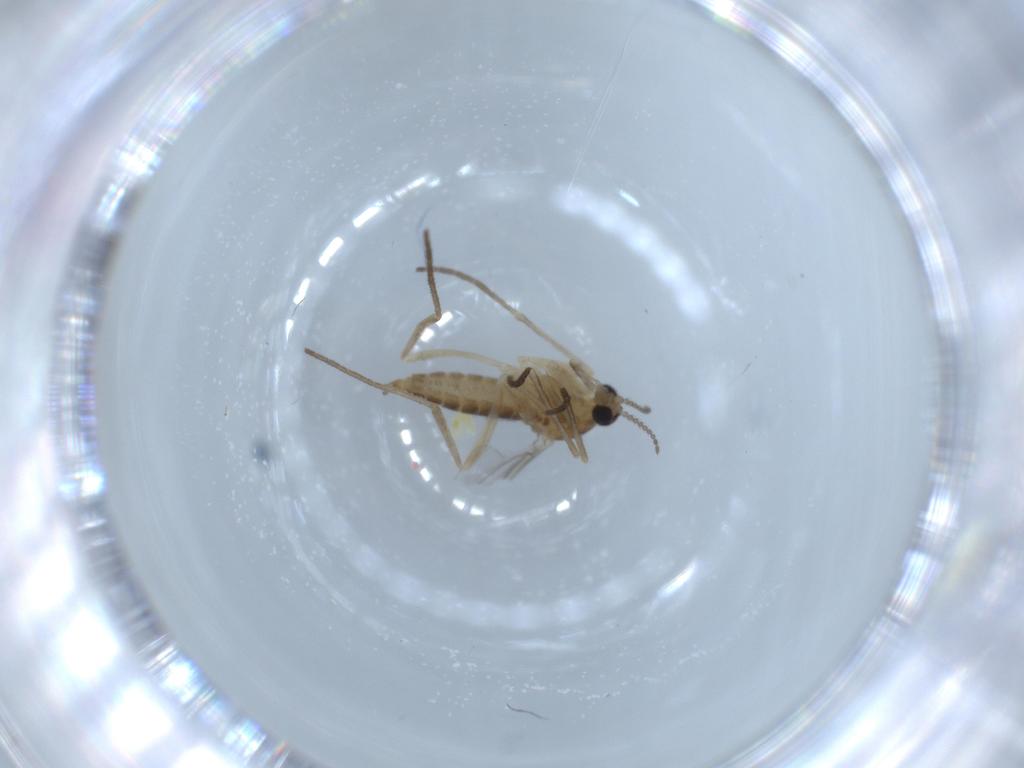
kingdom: Animalia
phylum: Arthropoda
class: Insecta
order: Diptera
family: Cecidomyiidae
